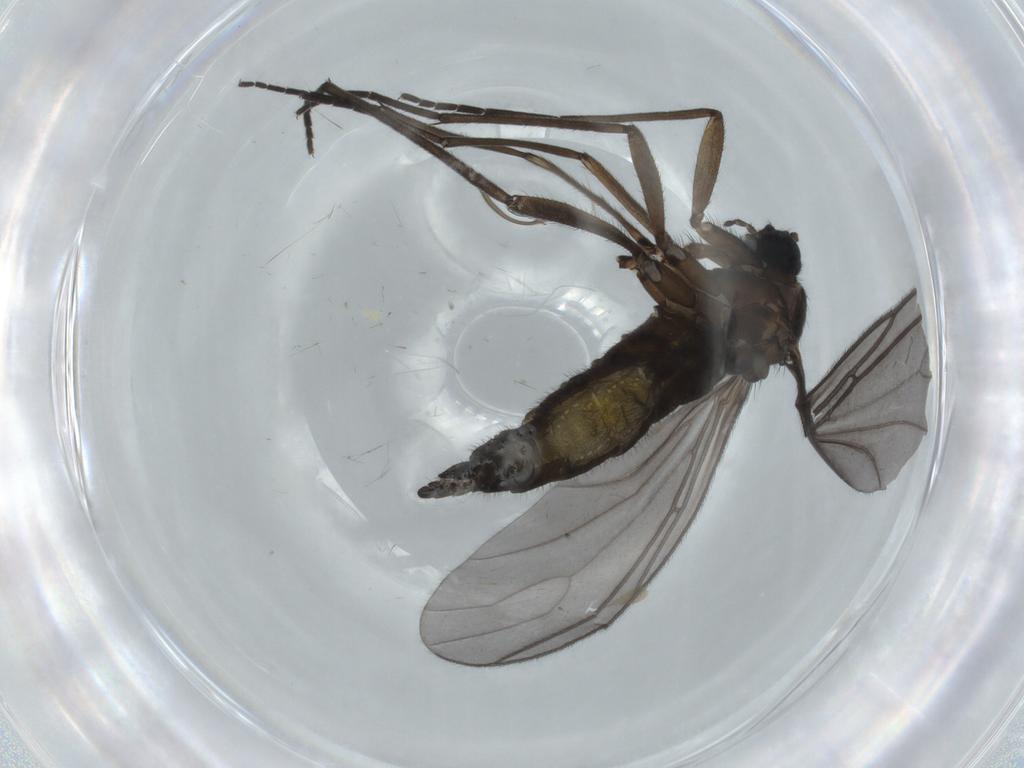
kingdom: Animalia
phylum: Arthropoda
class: Insecta
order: Diptera
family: Sciaridae
